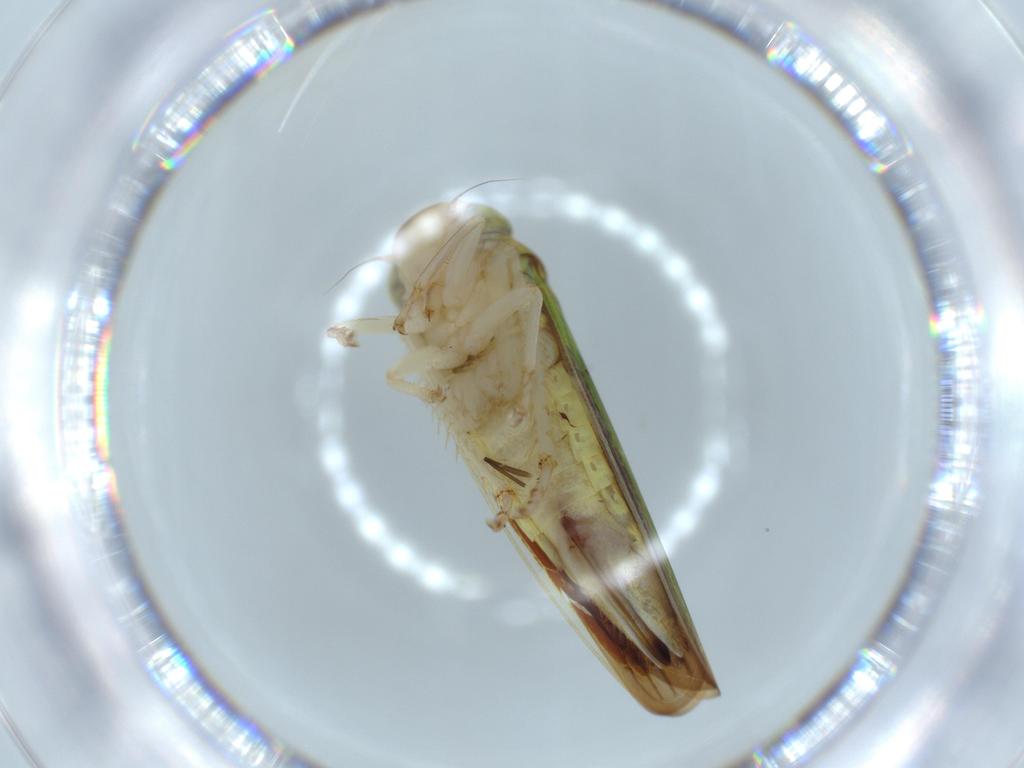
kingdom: Animalia
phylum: Arthropoda
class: Insecta
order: Hemiptera
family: Cicadellidae
